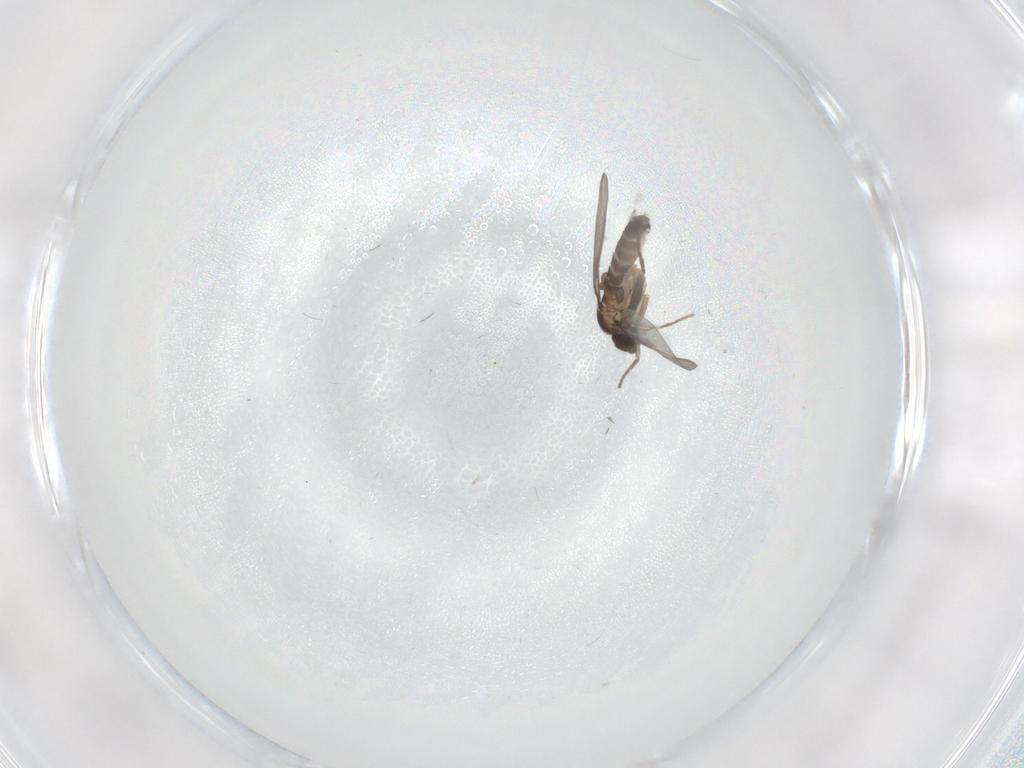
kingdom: Animalia
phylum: Arthropoda
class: Insecta
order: Diptera
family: Phoridae
